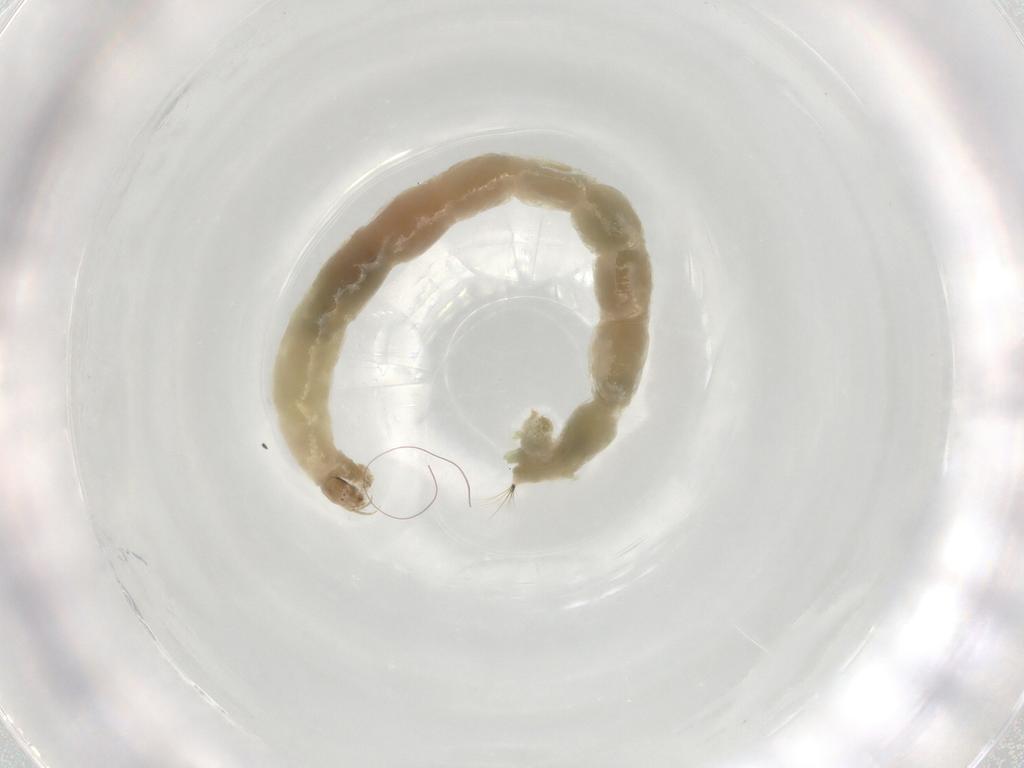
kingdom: Animalia
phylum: Arthropoda
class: Insecta
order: Diptera
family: Chironomidae
